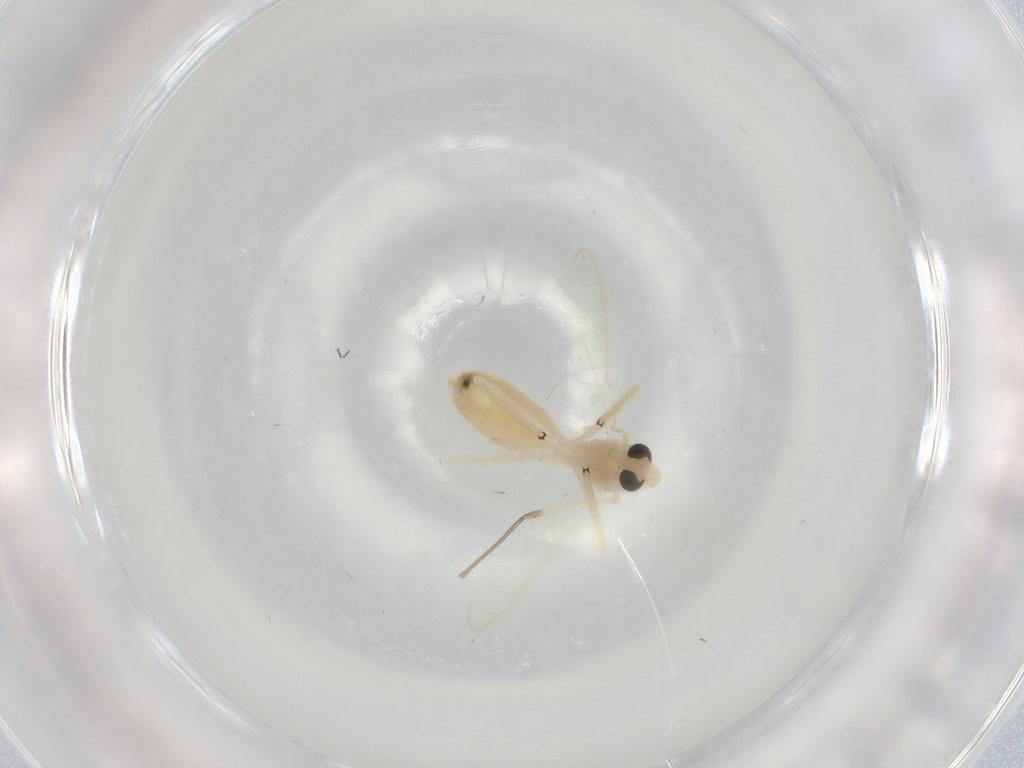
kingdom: Animalia
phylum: Arthropoda
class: Insecta
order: Diptera
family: Chironomidae
